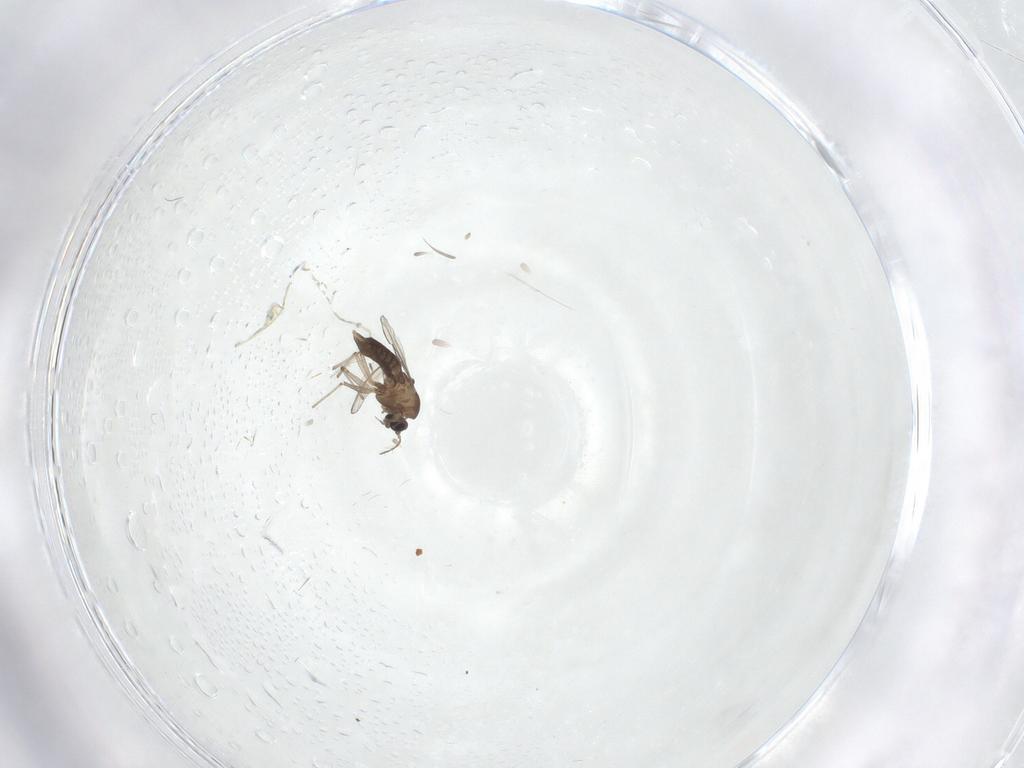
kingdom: Animalia
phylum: Arthropoda
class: Insecta
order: Diptera
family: Chironomidae
